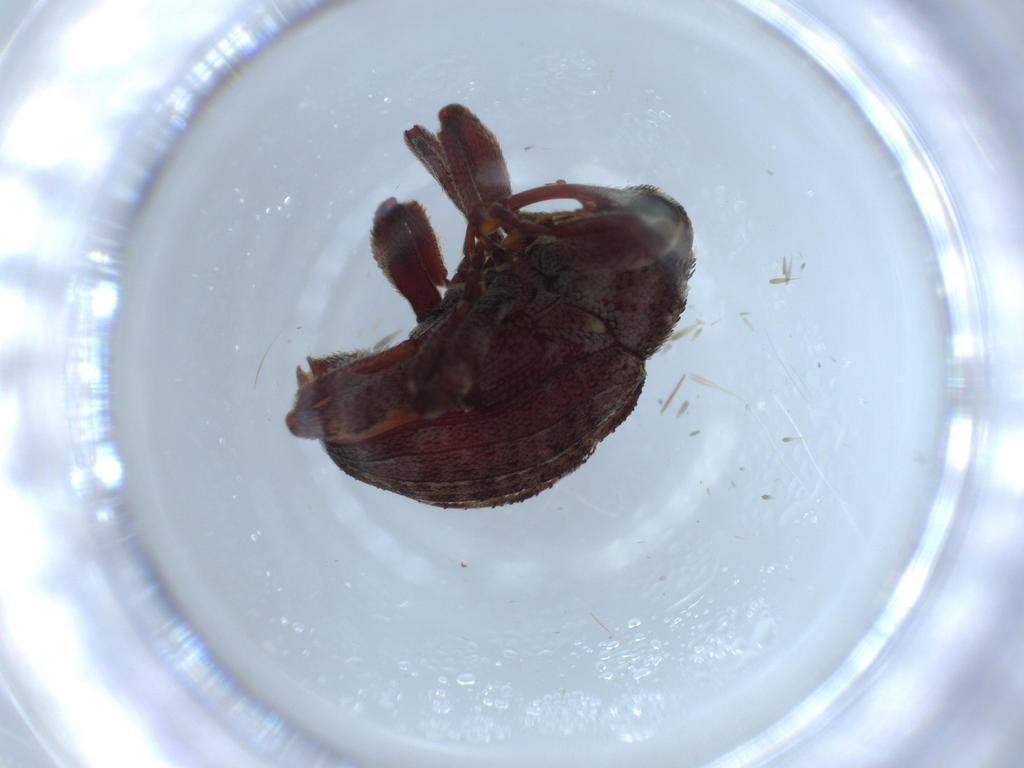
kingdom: Animalia
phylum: Arthropoda
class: Insecta
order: Coleoptera
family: Curculionidae
